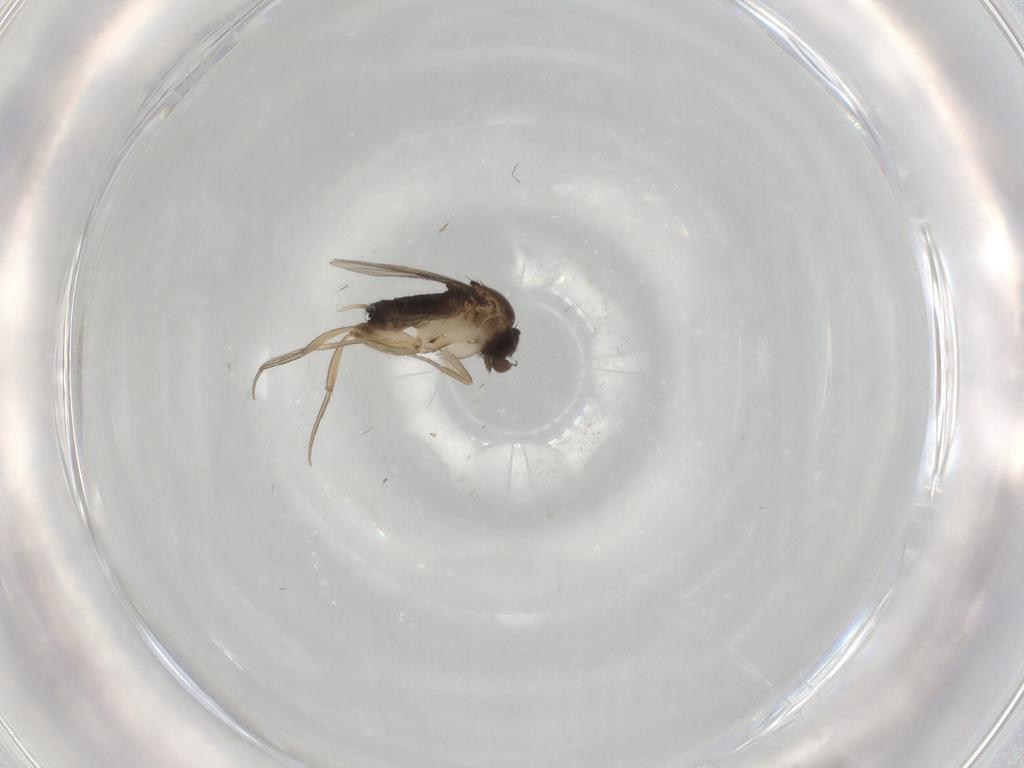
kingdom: Animalia
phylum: Arthropoda
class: Insecta
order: Diptera
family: Phoridae
